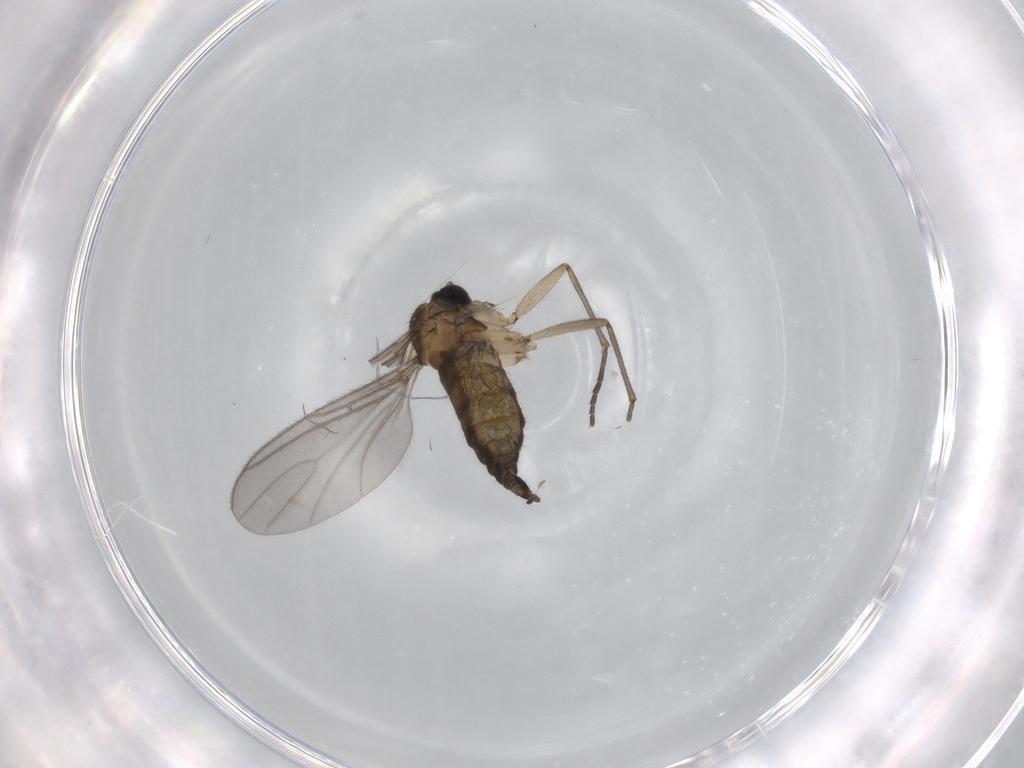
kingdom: Animalia
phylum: Arthropoda
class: Insecta
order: Diptera
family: Sciaridae
